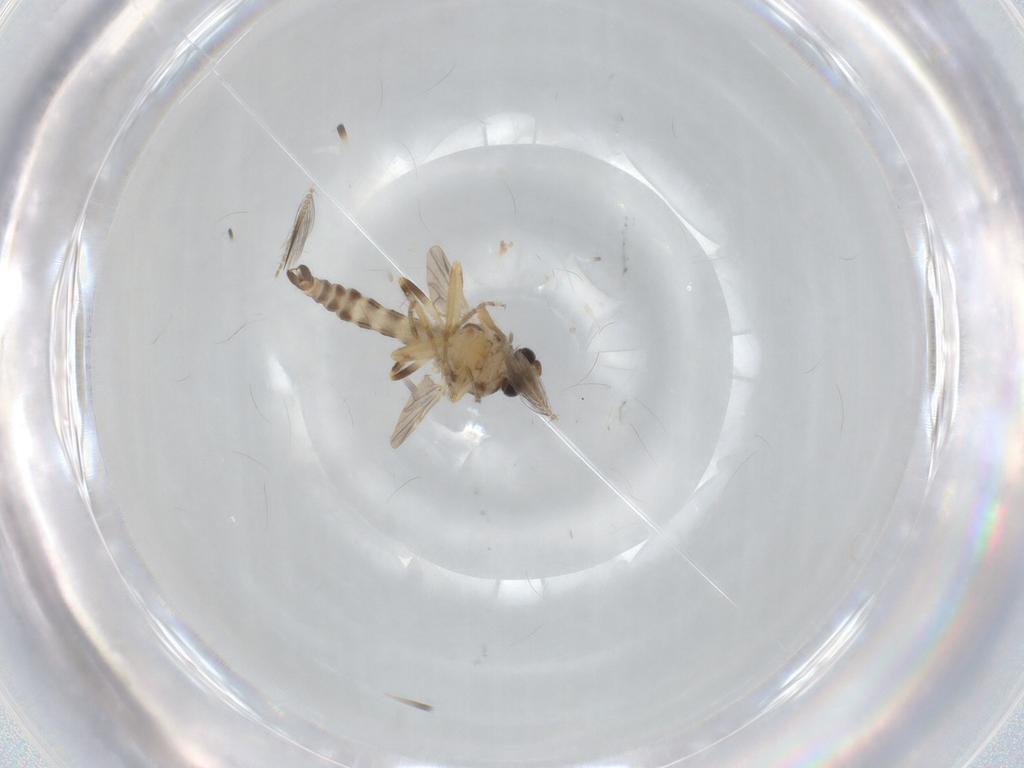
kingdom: Animalia
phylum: Arthropoda
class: Insecta
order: Diptera
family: Ceratopogonidae
